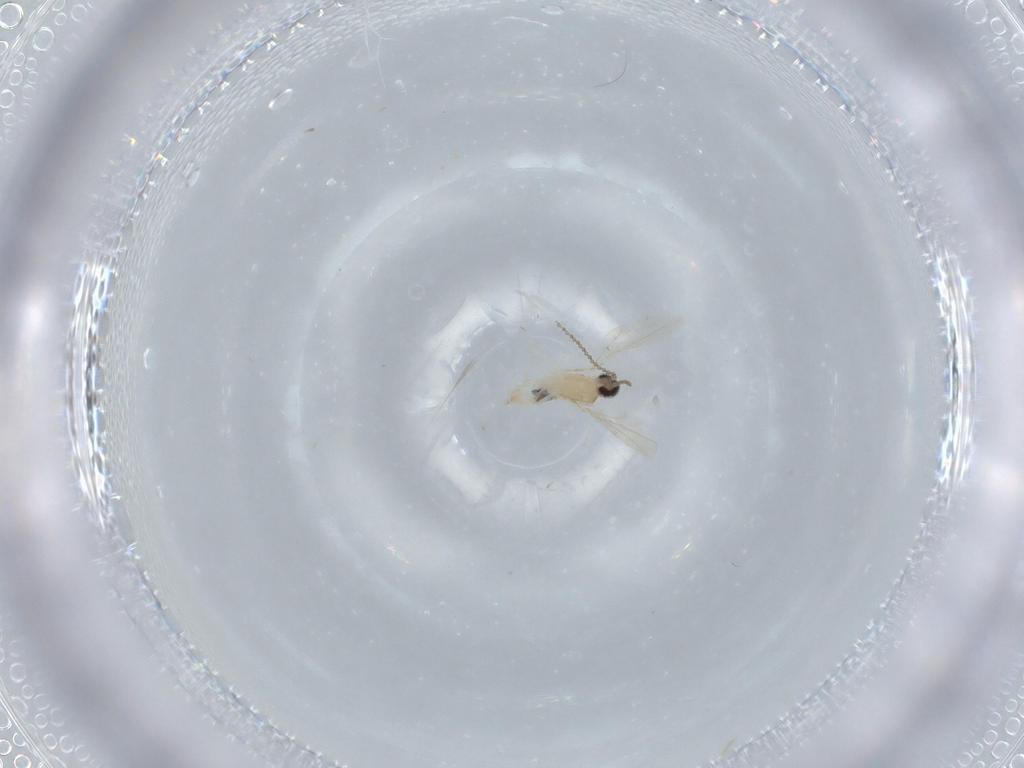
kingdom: Animalia
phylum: Arthropoda
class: Insecta
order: Diptera
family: Cecidomyiidae
